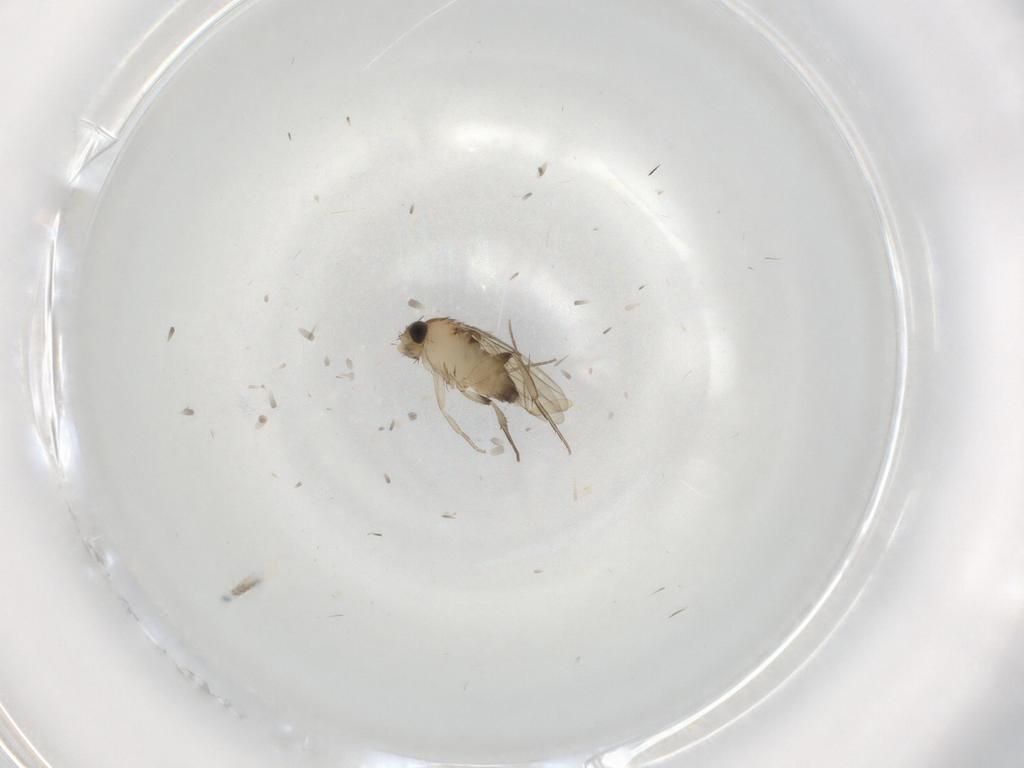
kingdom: Animalia
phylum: Arthropoda
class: Insecta
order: Diptera
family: Phoridae
